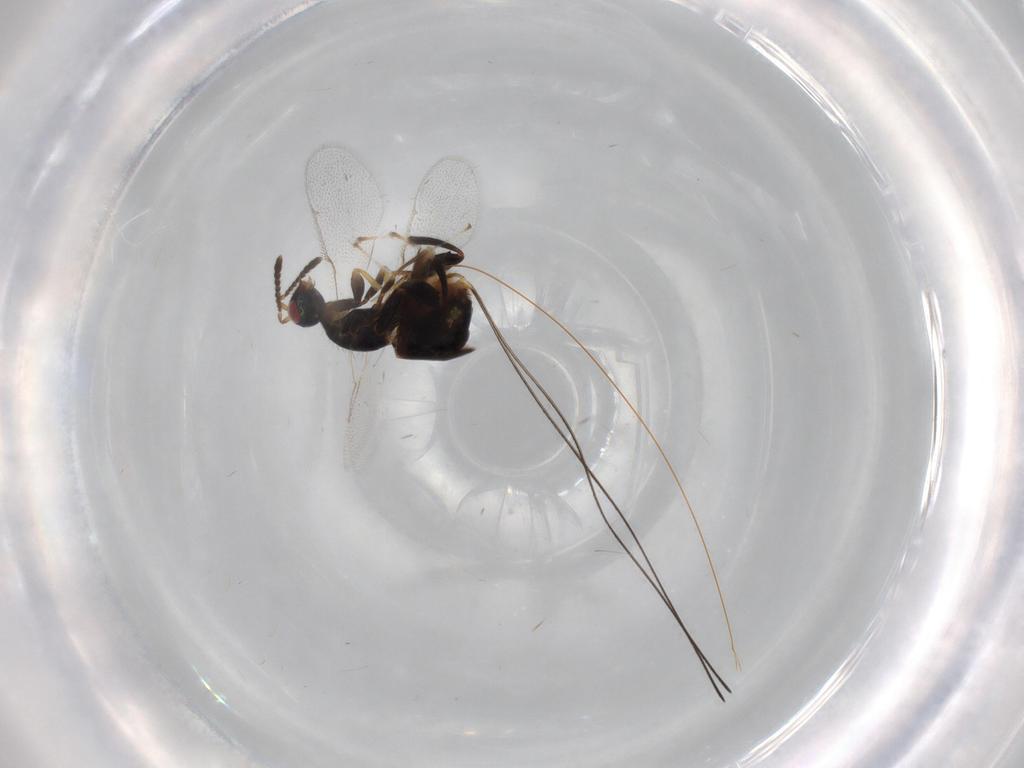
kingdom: Animalia
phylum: Arthropoda
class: Insecta
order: Hymenoptera
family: Torymidae
